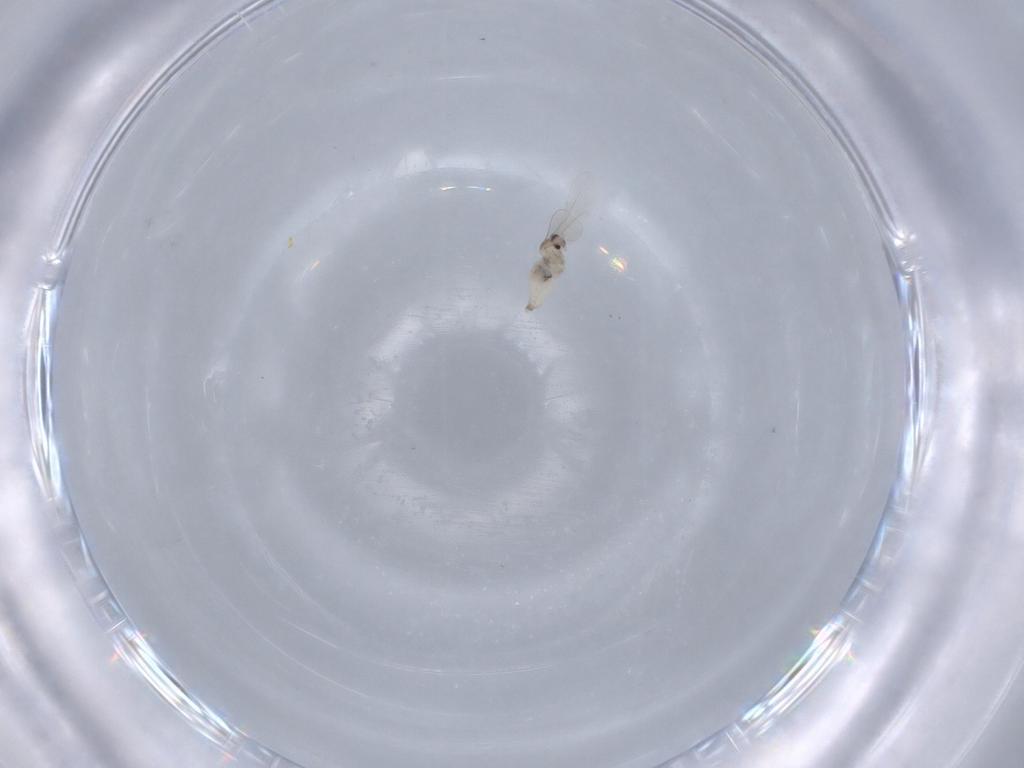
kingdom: Animalia
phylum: Arthropoda
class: Insecta
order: Diptera
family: Cecidomyiidae
